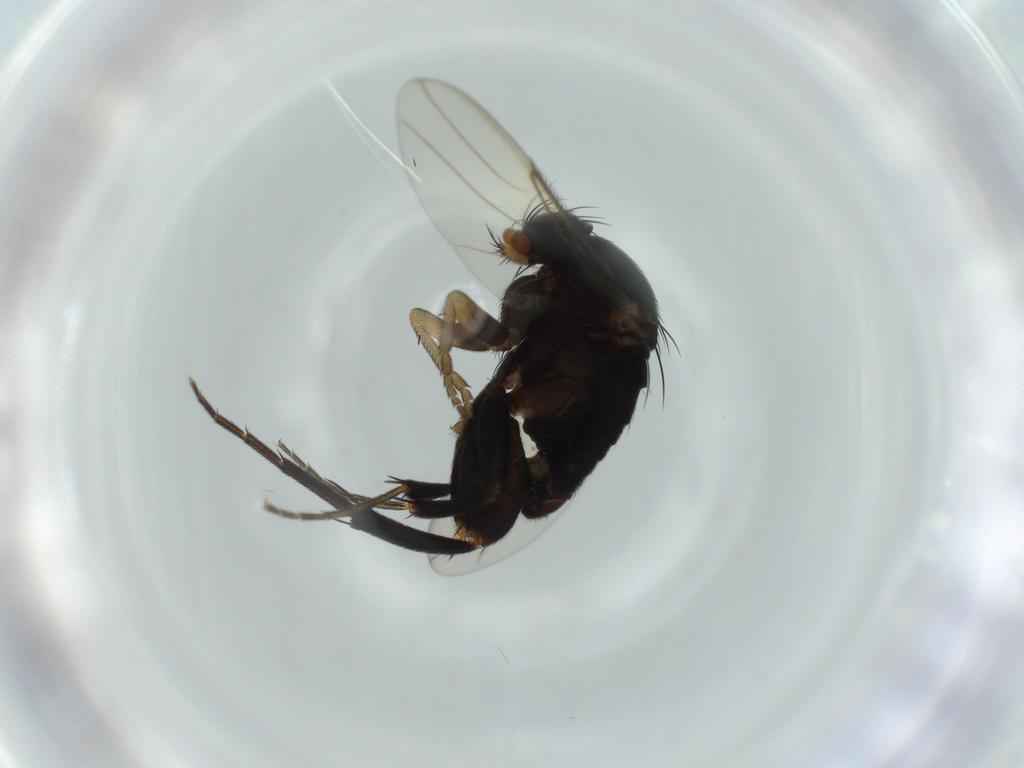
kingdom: Animalia
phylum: Arthropoda
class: Insecta
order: Diptera
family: Phoridae
